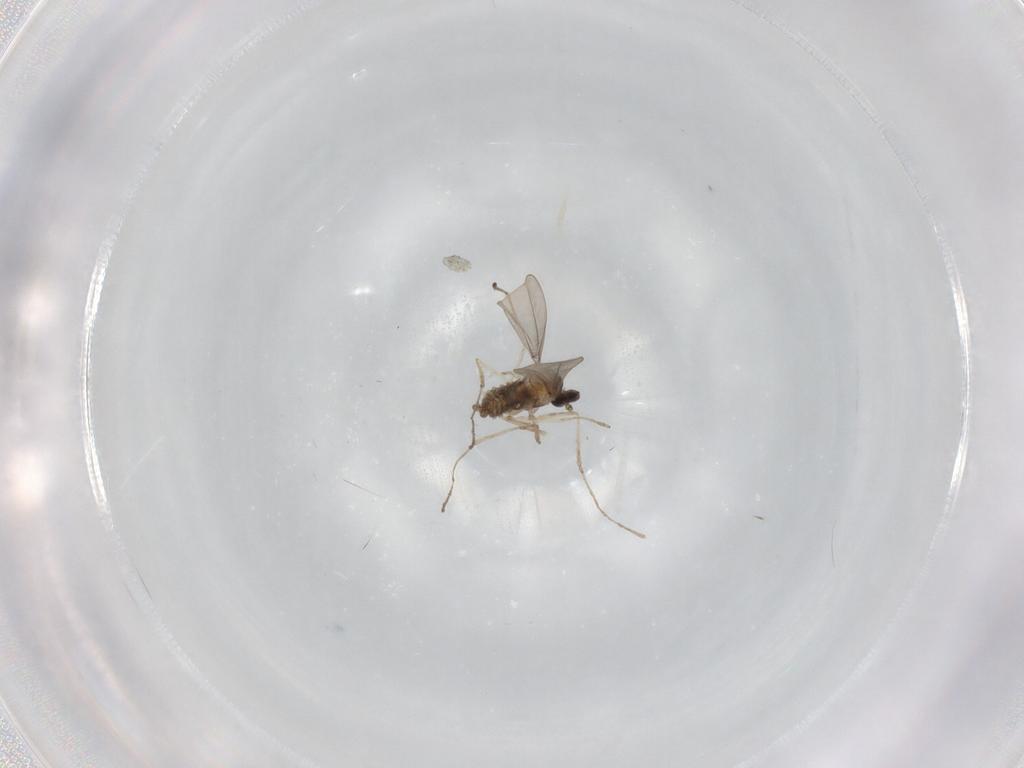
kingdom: Animalia
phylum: Arthropoda
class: Insecta
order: Diptera
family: Cecidomyiidae
